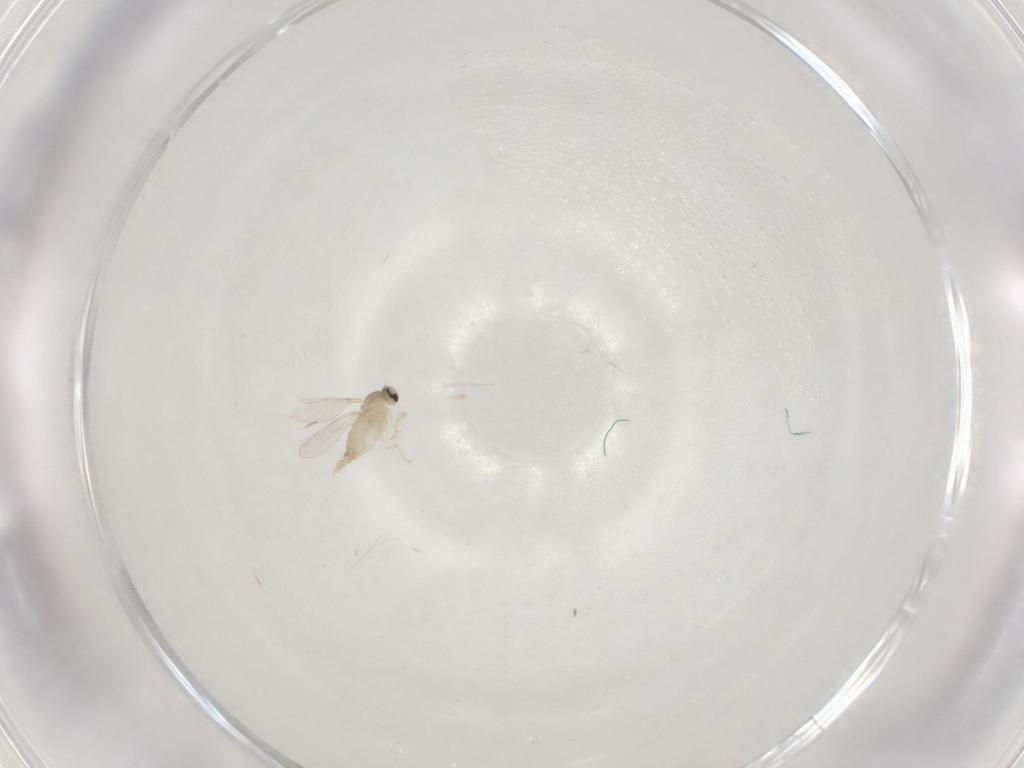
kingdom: Animalia
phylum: Arthropoda
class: Insecta
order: Diptera
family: Cecidomyiidae
